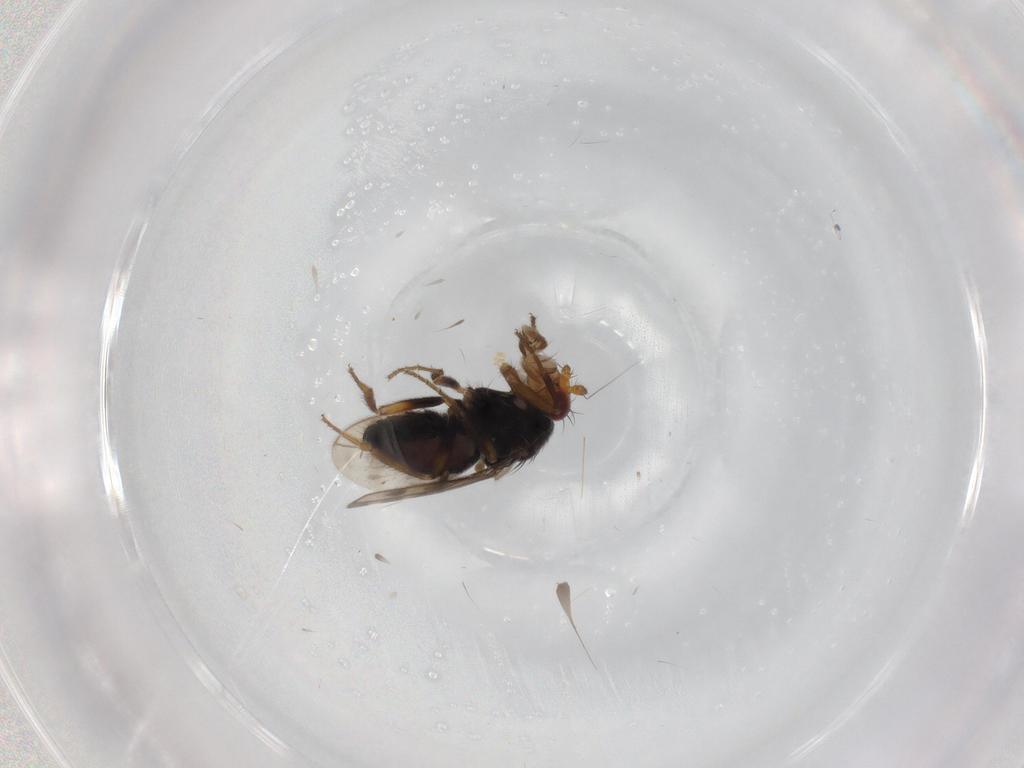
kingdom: Animalia
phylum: Arthropoda
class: Insecta
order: Diptera
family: Sphaeroceridae
